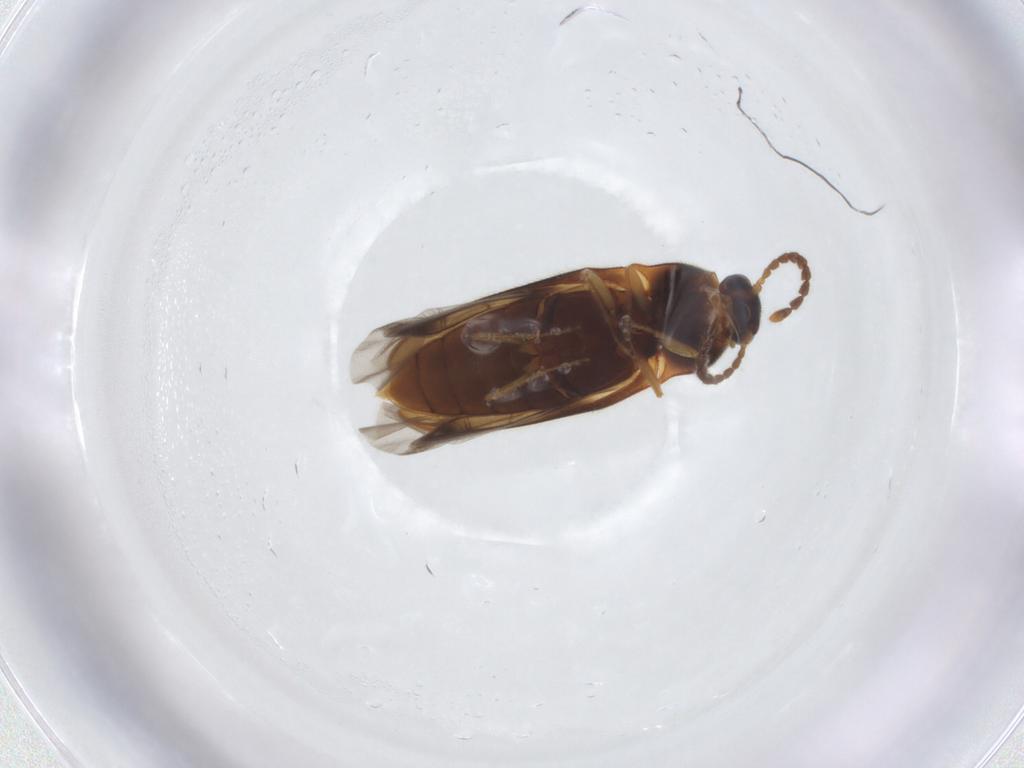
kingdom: Animalia
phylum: Arthropoda
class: Insecta
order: Coleoptera
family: Elateridae
